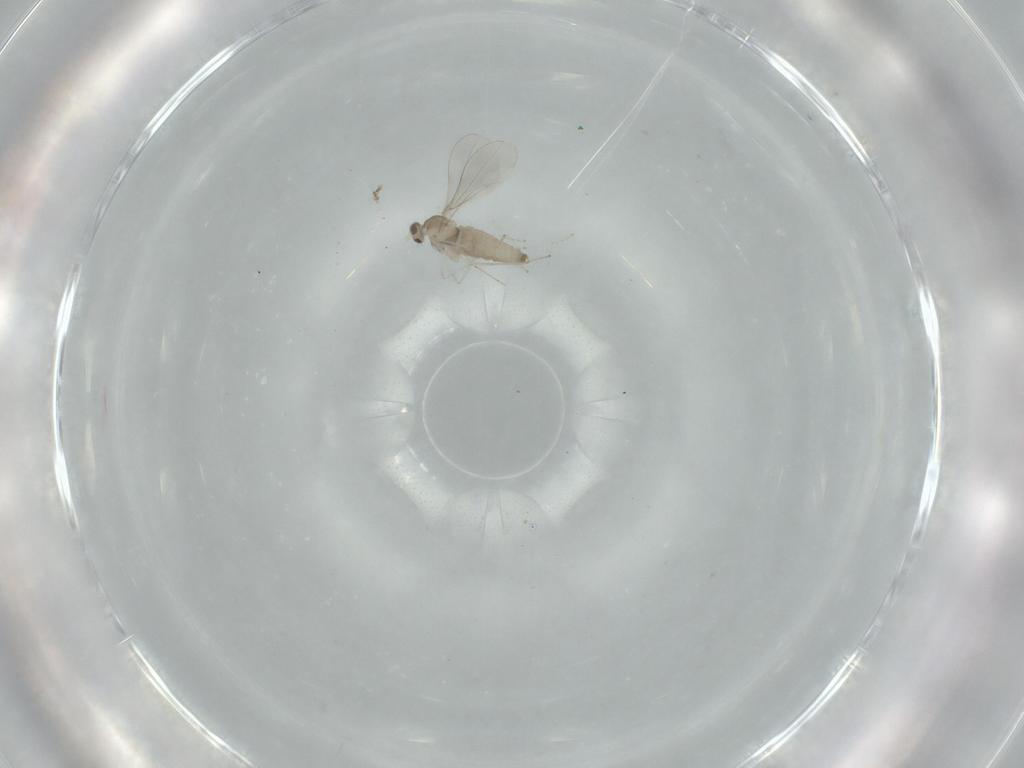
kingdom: Animalia
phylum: Arthropoda
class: Insecta
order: Diptera
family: Cecidomyiidae
